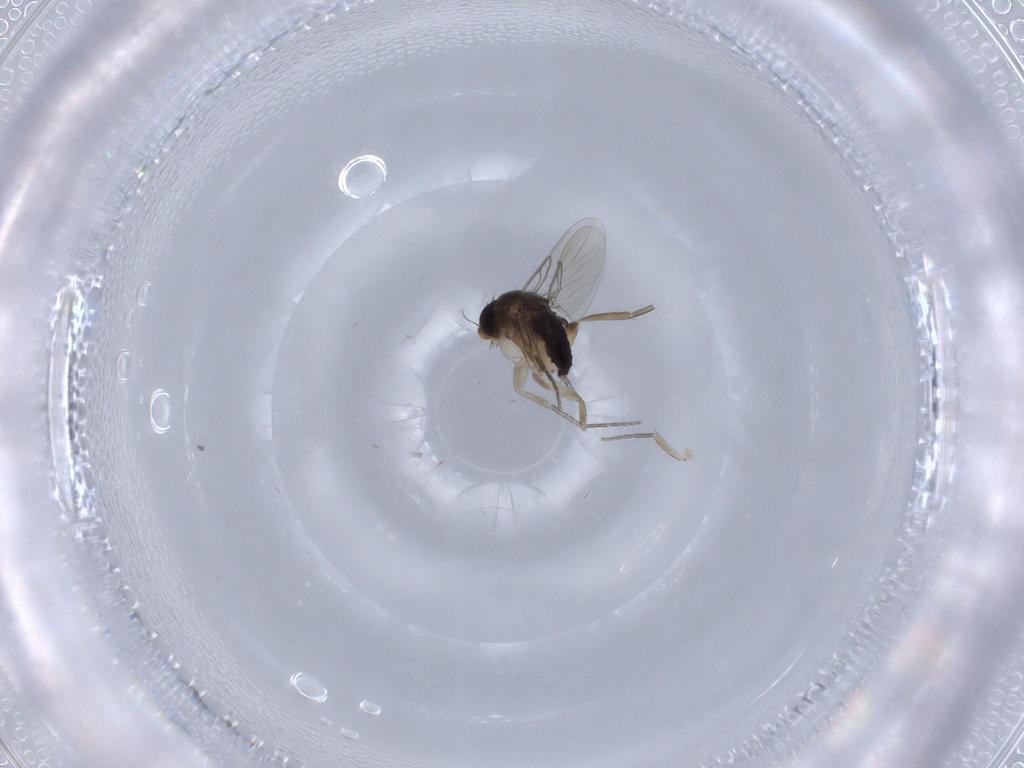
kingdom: Animalia
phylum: Arthropoda
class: Insecta
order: Diptera
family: Phoridae
